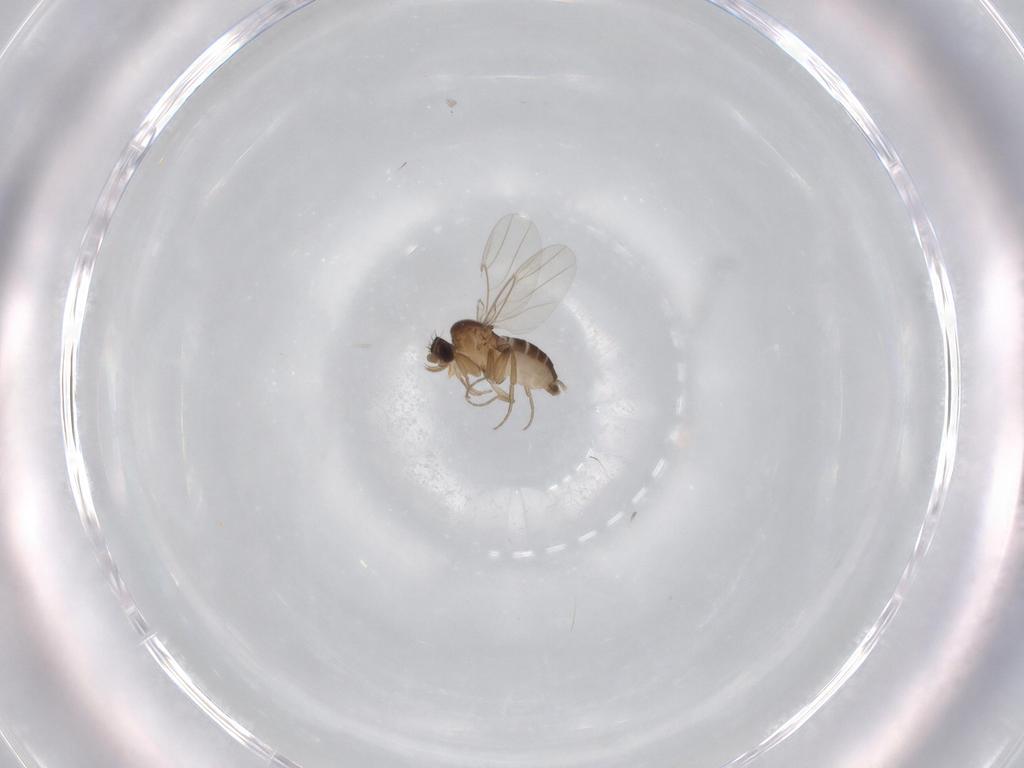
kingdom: Animalia
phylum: Arthropoda
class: Insecta
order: Diptera
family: Phoridae
